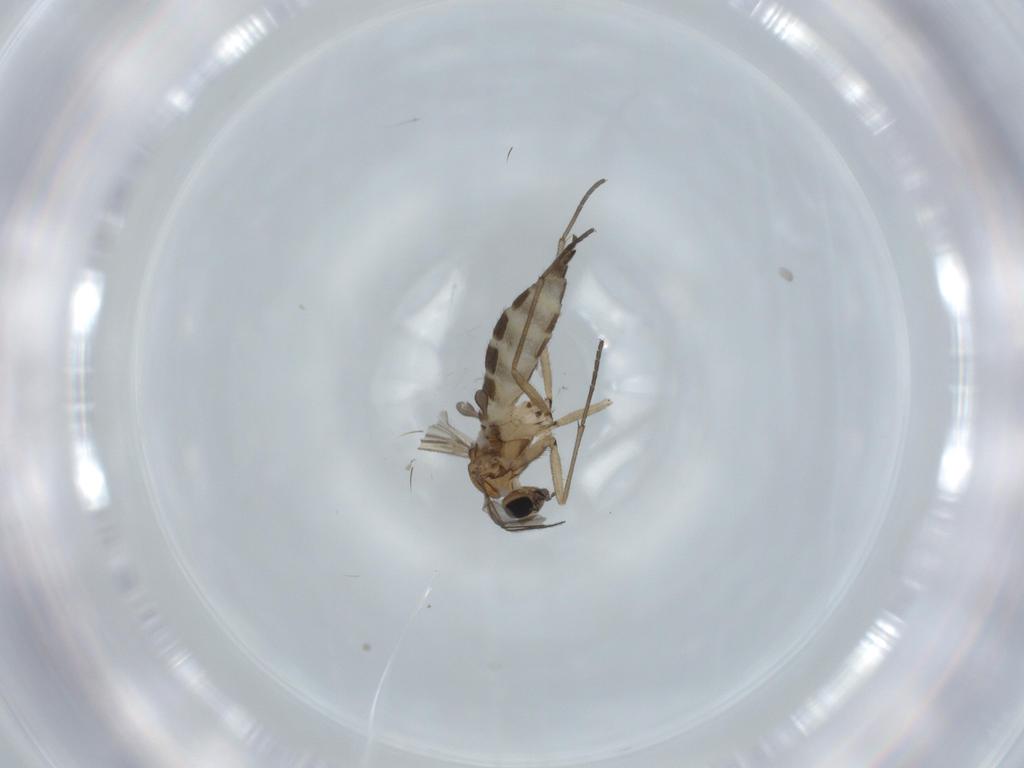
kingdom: Animalia
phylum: Arthropoda
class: Insecta
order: Diptera
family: Sciaridae
